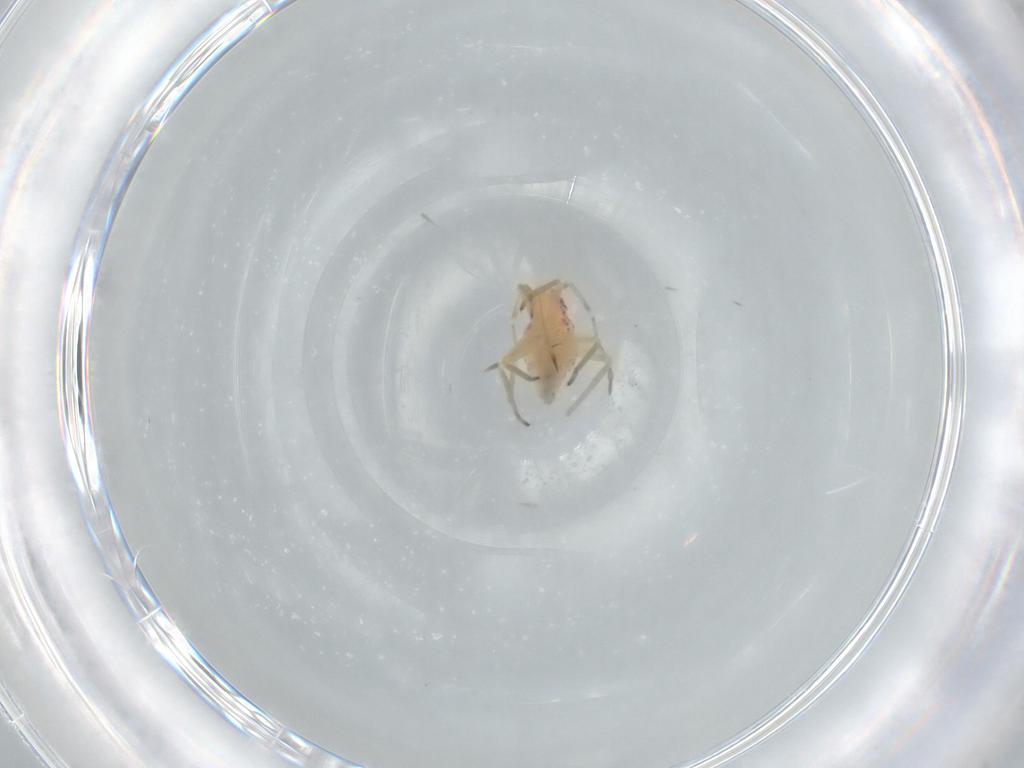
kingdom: Animalia
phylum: Arthropoda
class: Insecta
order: Hemiptera
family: Miridae
